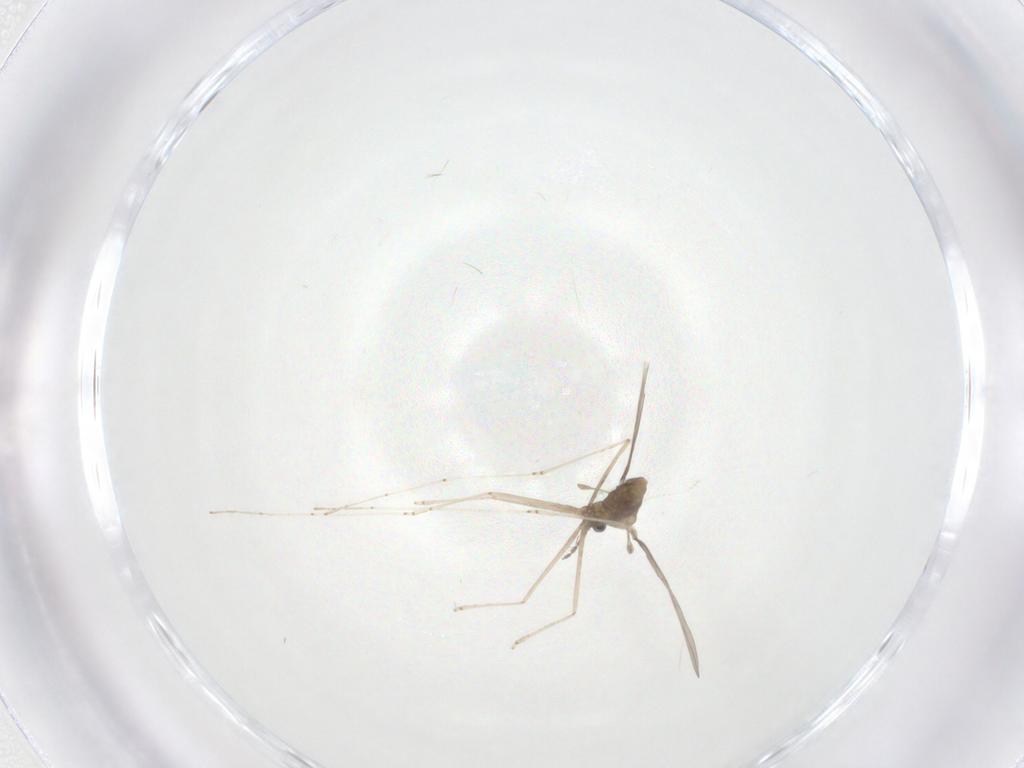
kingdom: Animalia
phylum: Arthropoda
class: Insecta
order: Diptera
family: Cecidomyiidae
